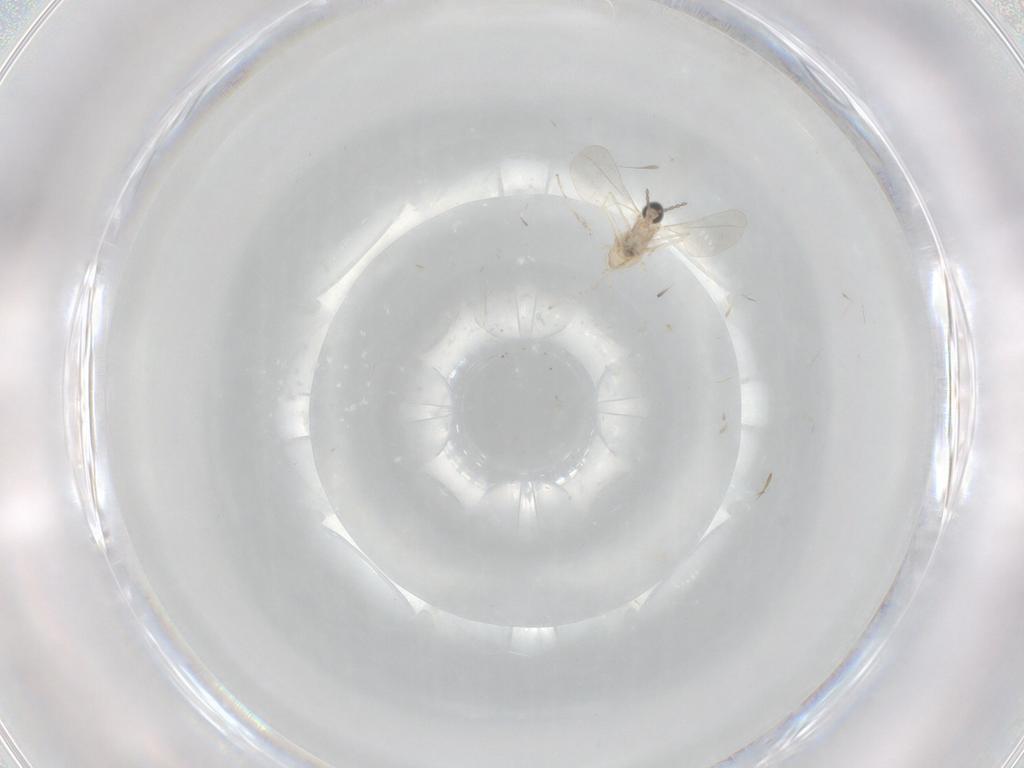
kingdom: Animalia
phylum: Arthropoda
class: Insecta
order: Diptera
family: Cecidomyiidae
